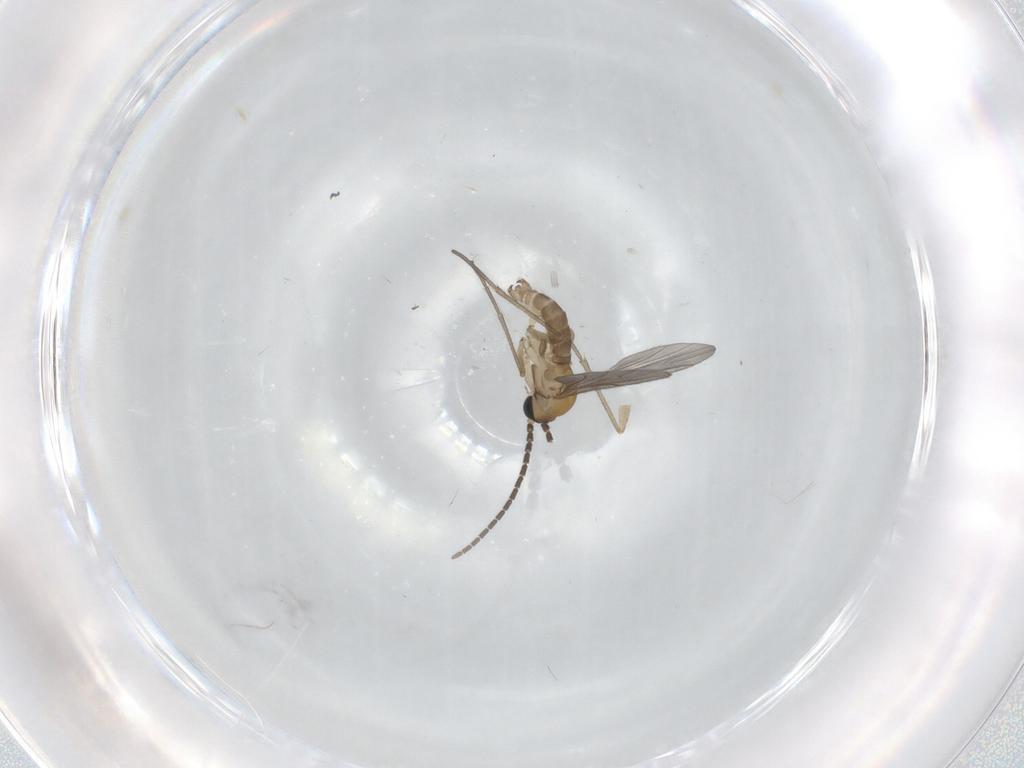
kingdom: Animalia
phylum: Arthropoda
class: Insecta
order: Diptera
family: Sciaridae
